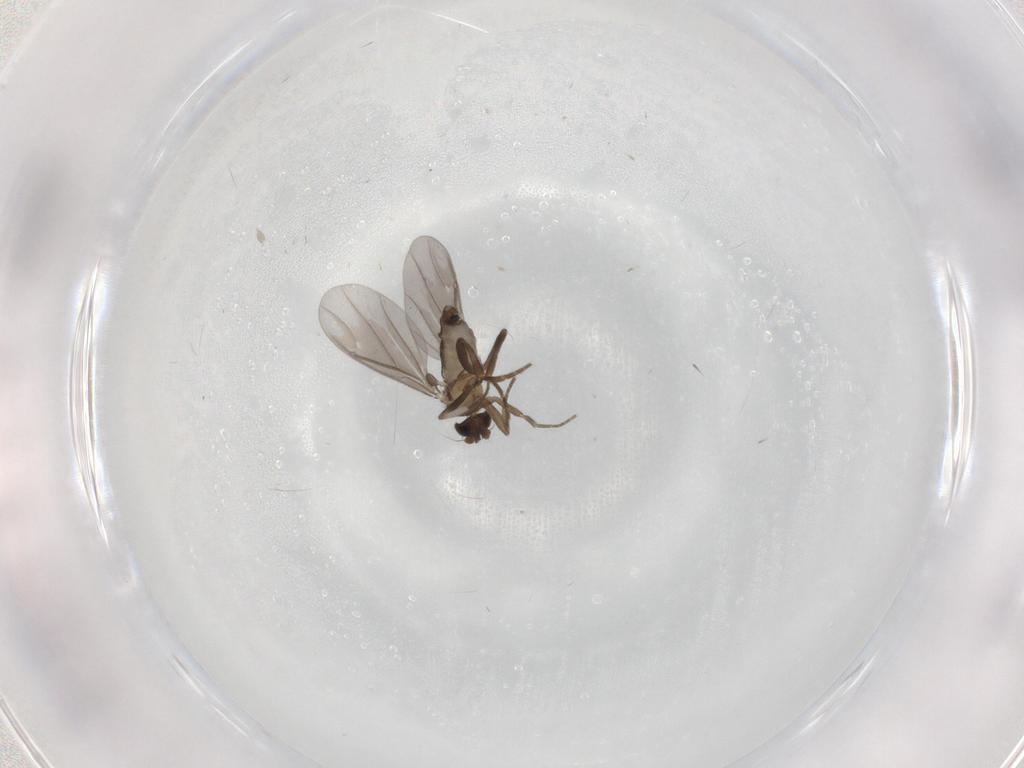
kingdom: Animalia
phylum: Arthropoda
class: Insecta
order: Diptera
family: Phoridae
